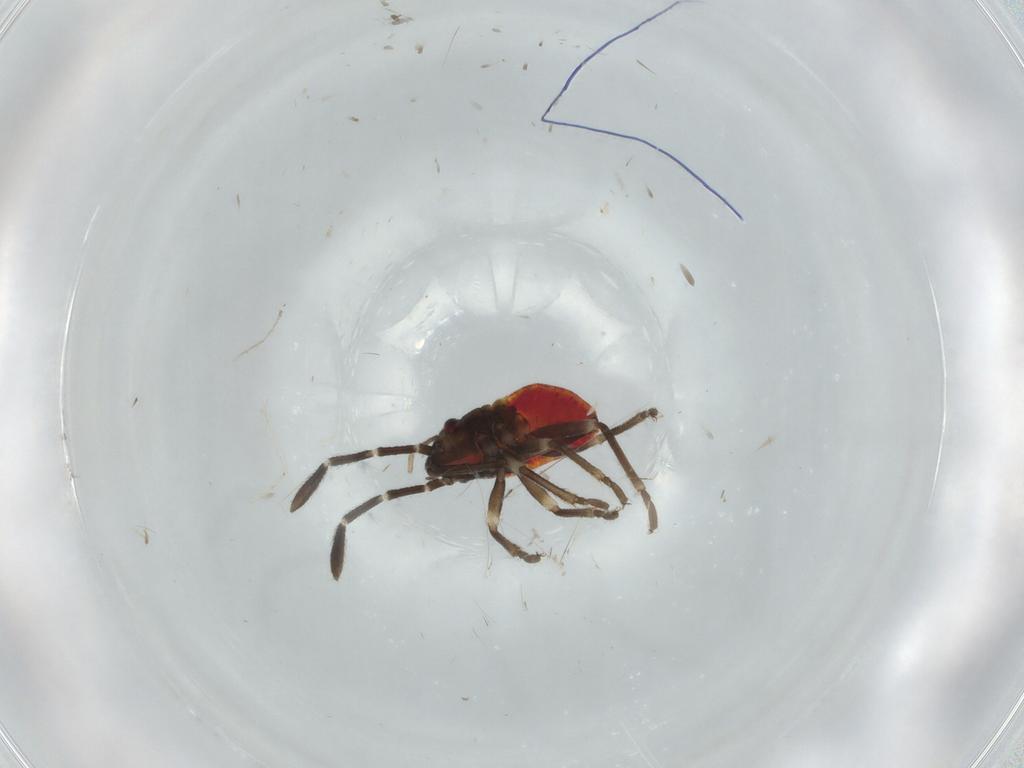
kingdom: Animalia
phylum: Arthropoda
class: Insecta
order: Hemiptera
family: Lygaeidae
